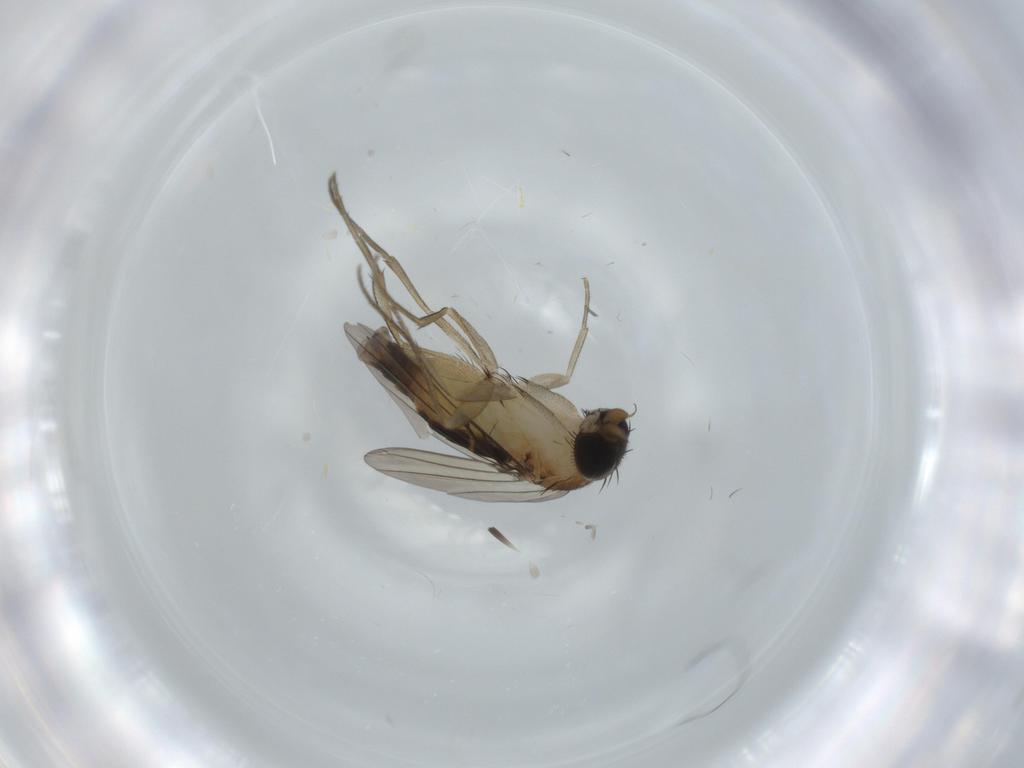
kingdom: Animalia
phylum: Arthropoda
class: Insecta
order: Diptera
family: Phoridae
